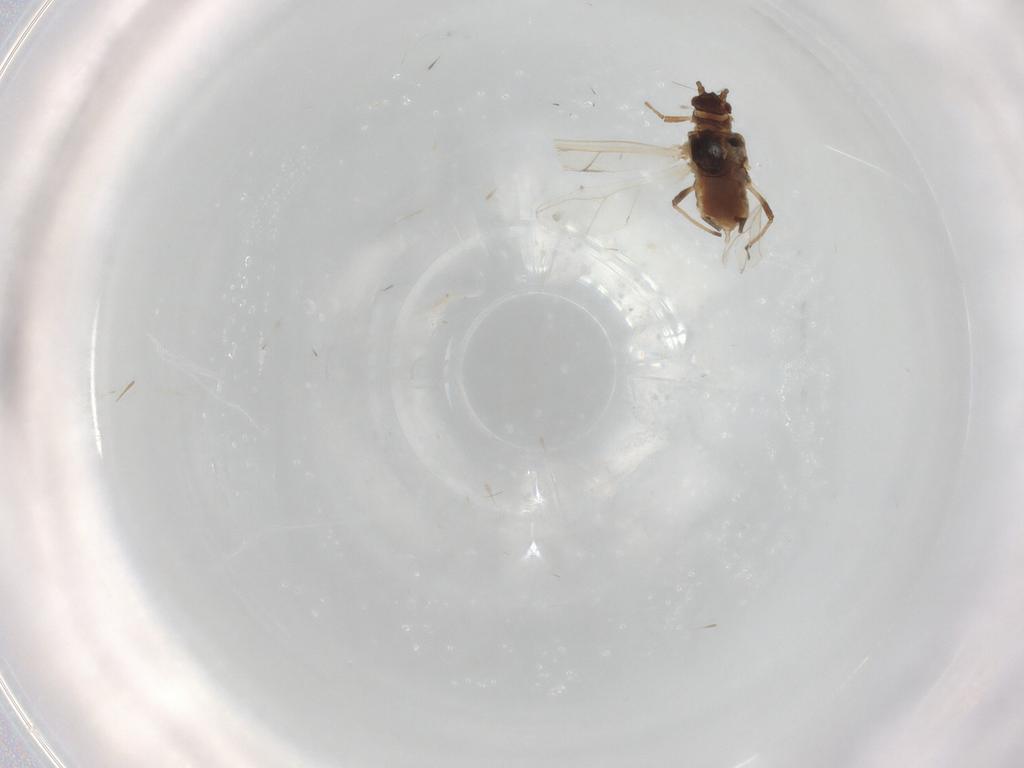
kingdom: Animalia
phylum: Arthropoda
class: Insecta
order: Hemiptera
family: Aphididae
